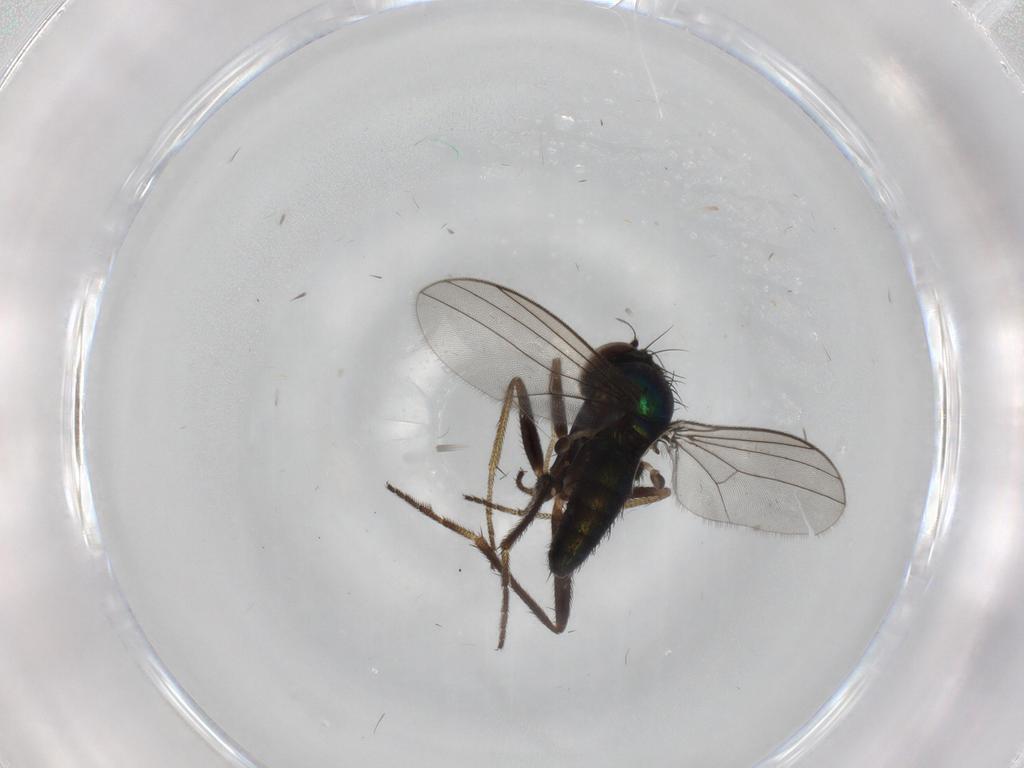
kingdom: Animalia
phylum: Arthropoda
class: Insecta
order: Diptera
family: Dolichopodidae
